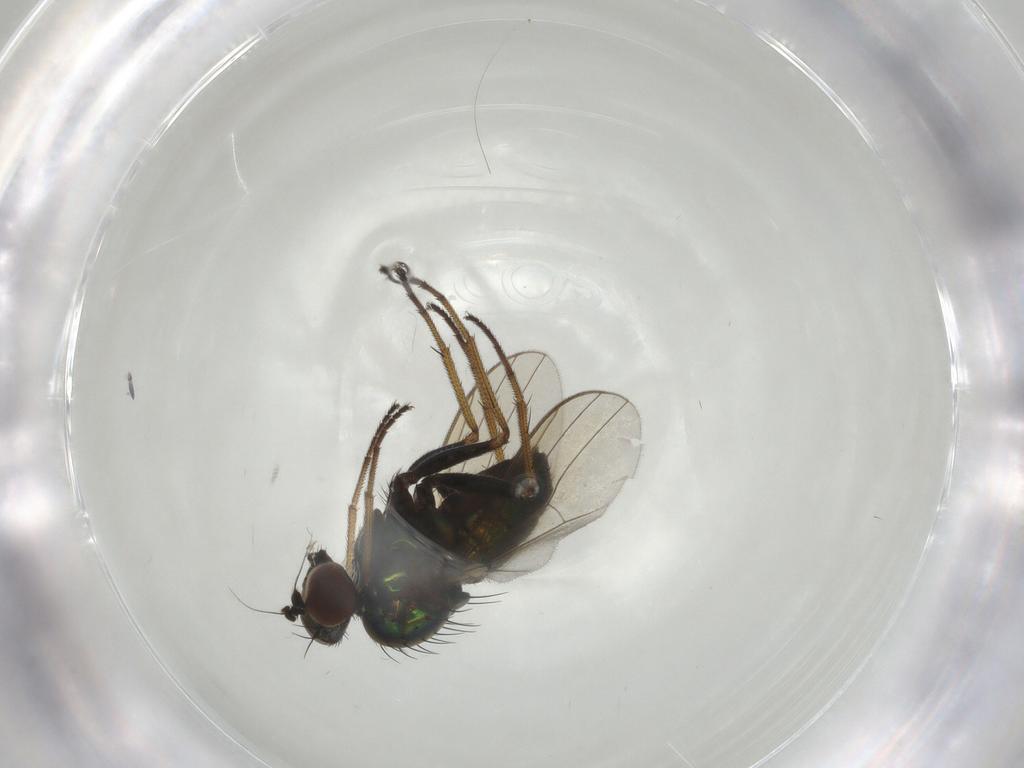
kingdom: Animalia
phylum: Arthropoda
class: Insecta
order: Diptera
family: Dolichopodidae
